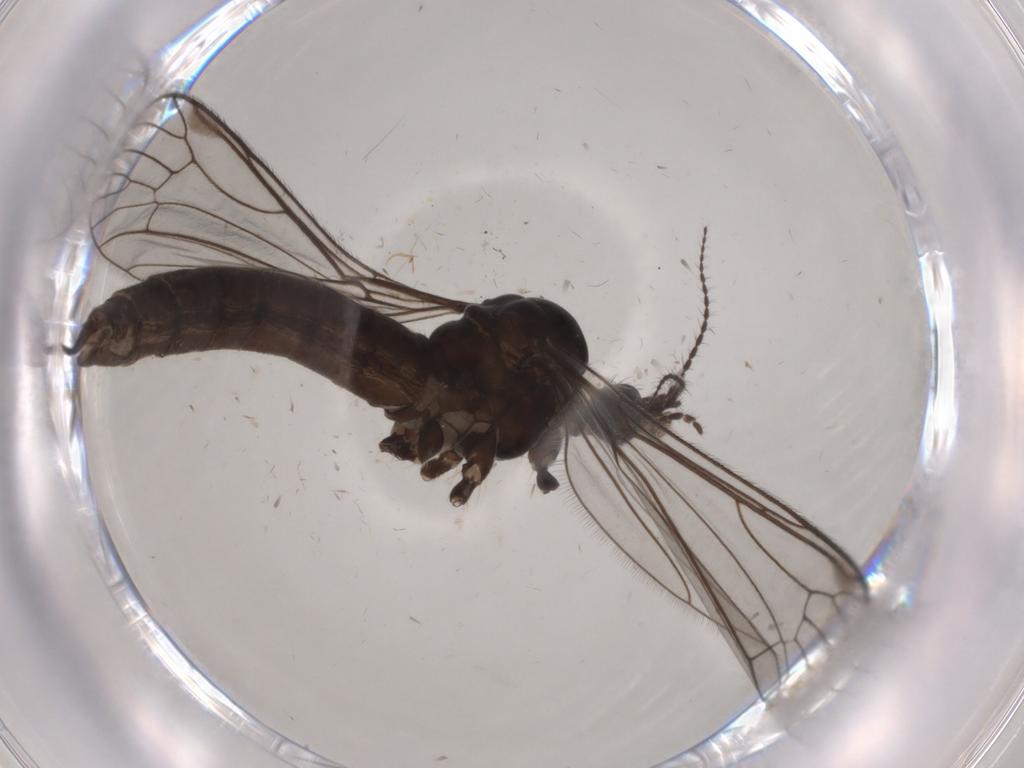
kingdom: Animalia
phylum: Arthropoda
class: Insecta
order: Diptera
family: Limoniidae
